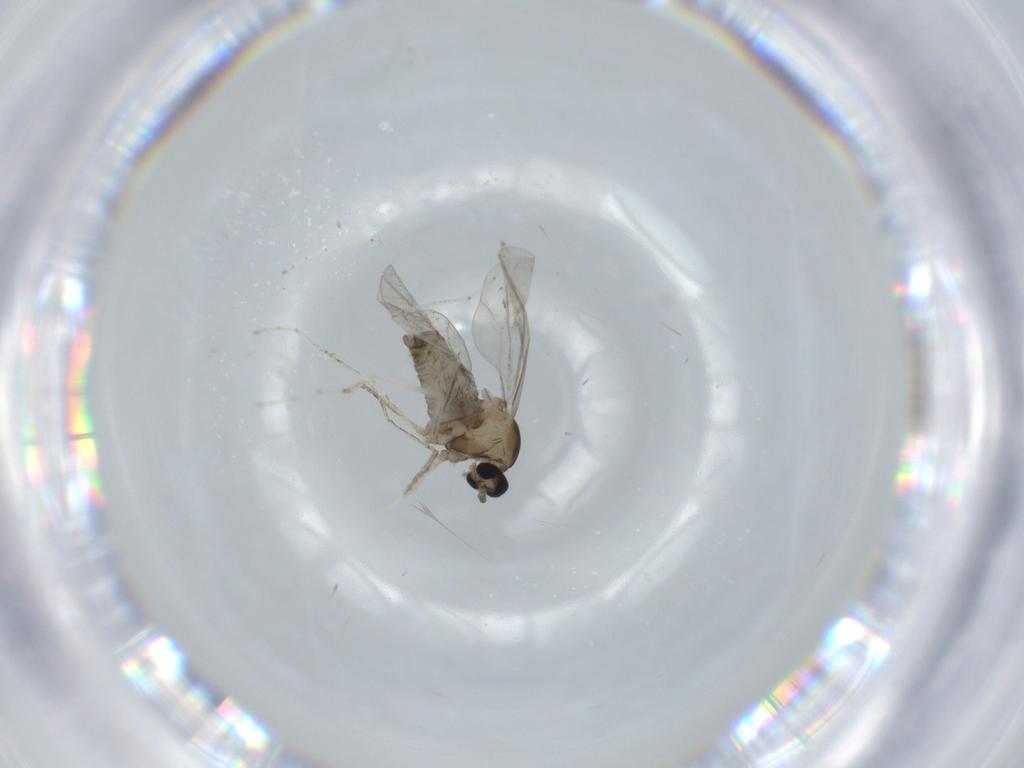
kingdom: Animalia
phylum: Arthropoda
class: Insecta
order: Diptera
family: Cecidomyiidae
